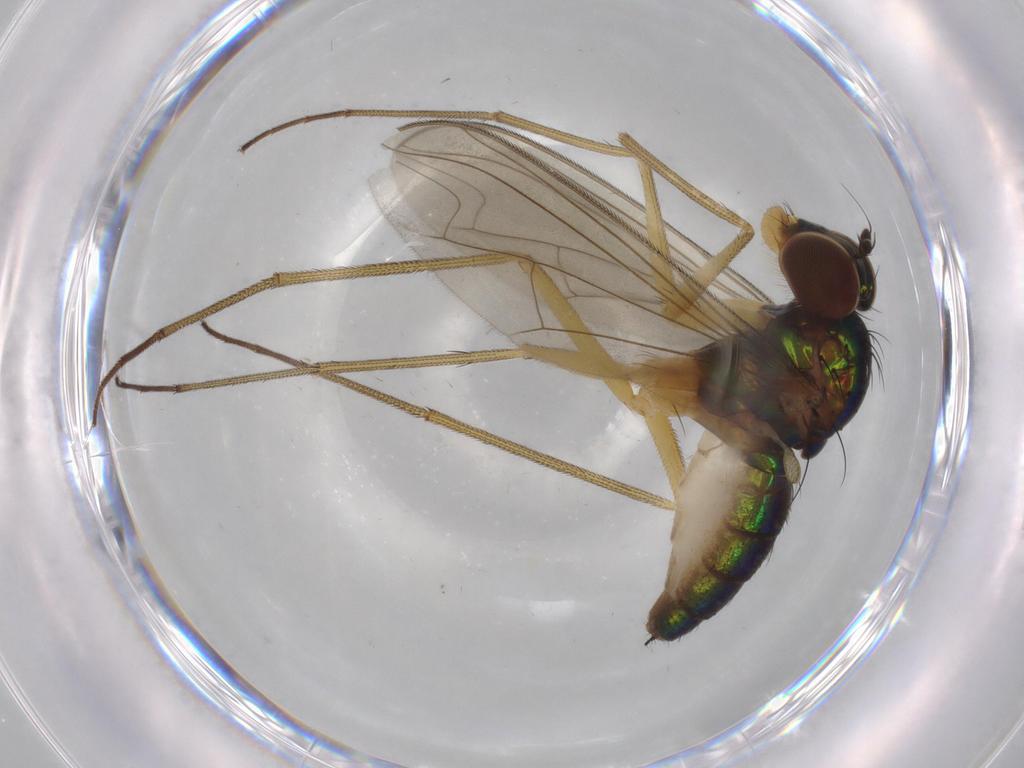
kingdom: Animalia
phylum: Arthropoda
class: Insecta
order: Diptera
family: Dolichopodidae
